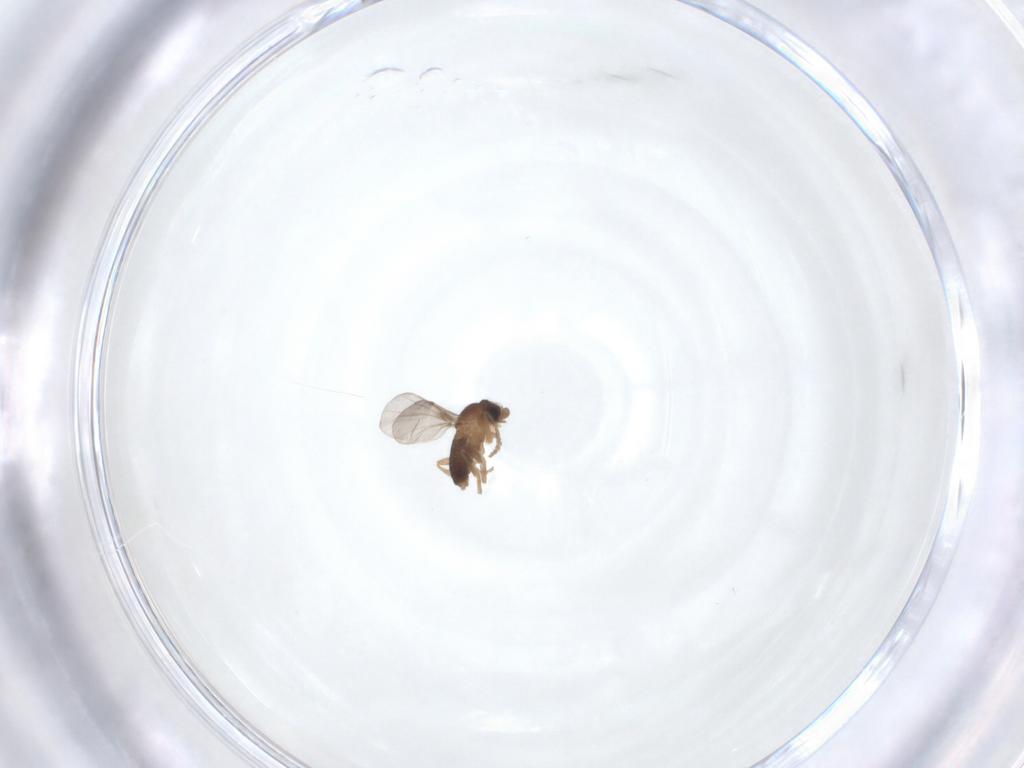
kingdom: Animalia
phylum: Arthropoda
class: Insecta
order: Diptera
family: Phoridae
